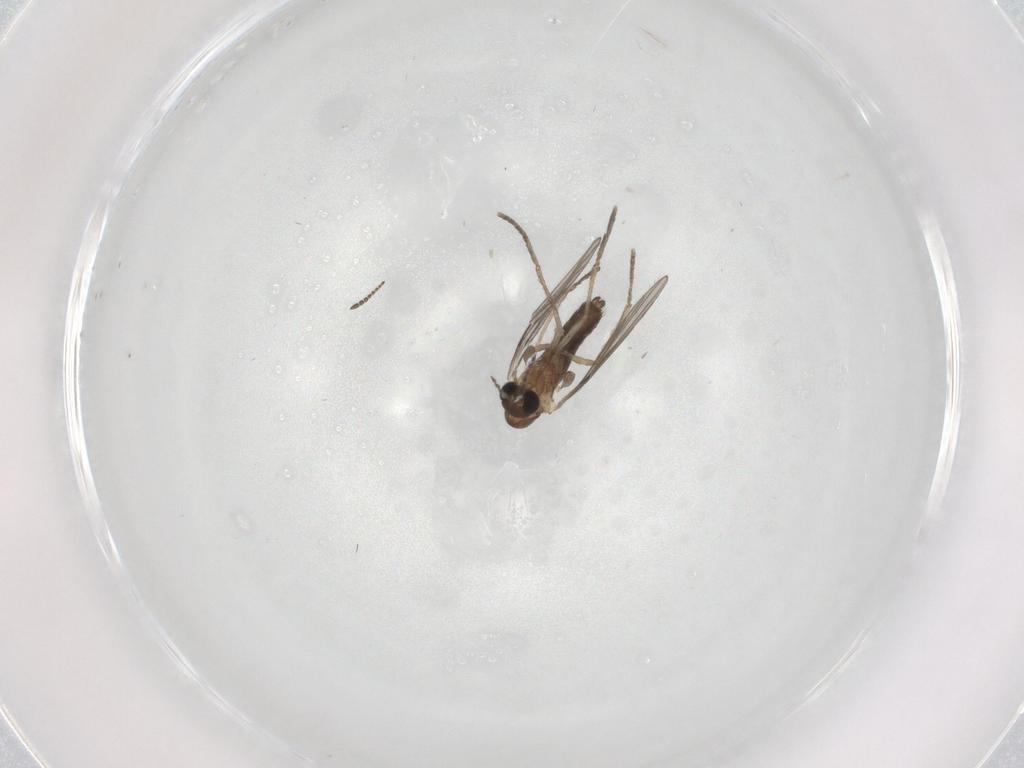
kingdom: Animalia
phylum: Arthropoda
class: Insecta
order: Diptera
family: Psychodidae
